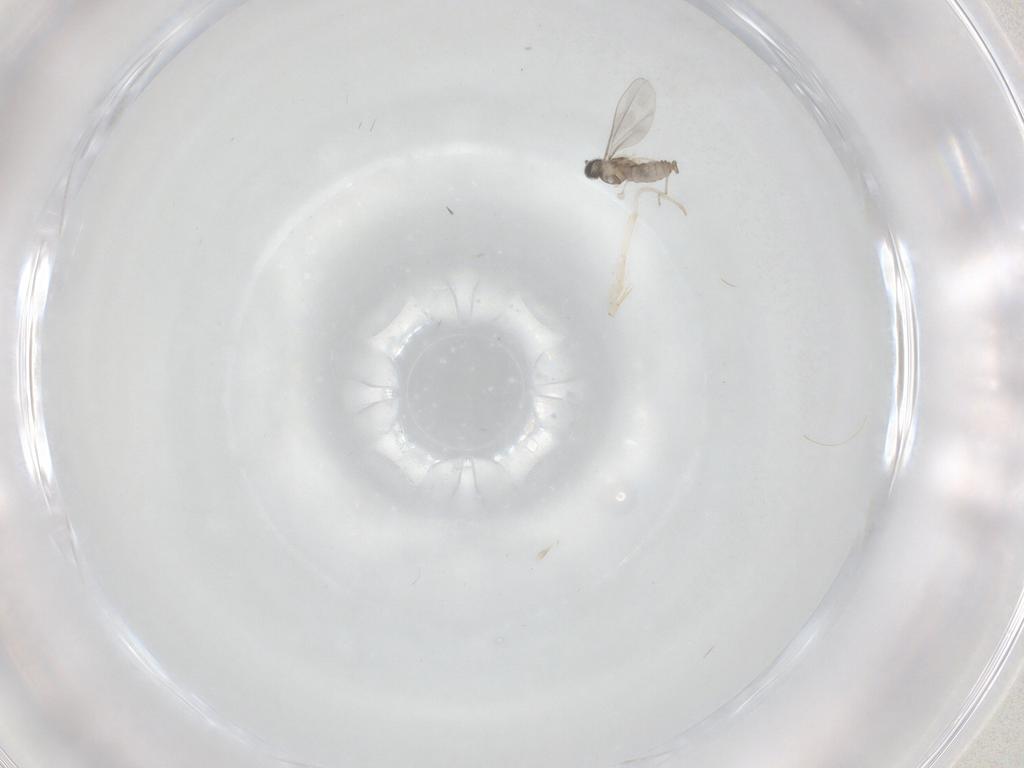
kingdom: Animalia
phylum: Arthropoda
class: Insecta
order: Diptera
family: Cecidomyiidae
